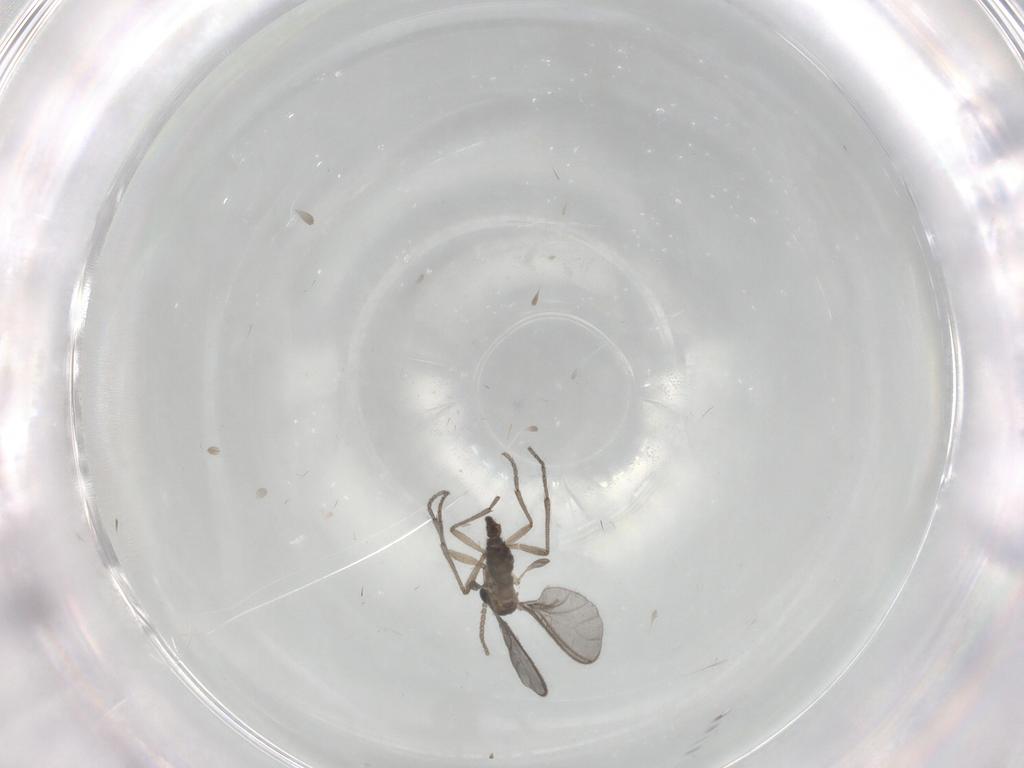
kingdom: Animalia
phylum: Arthropoda
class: Insecta
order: Diptera
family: Sciaridae
